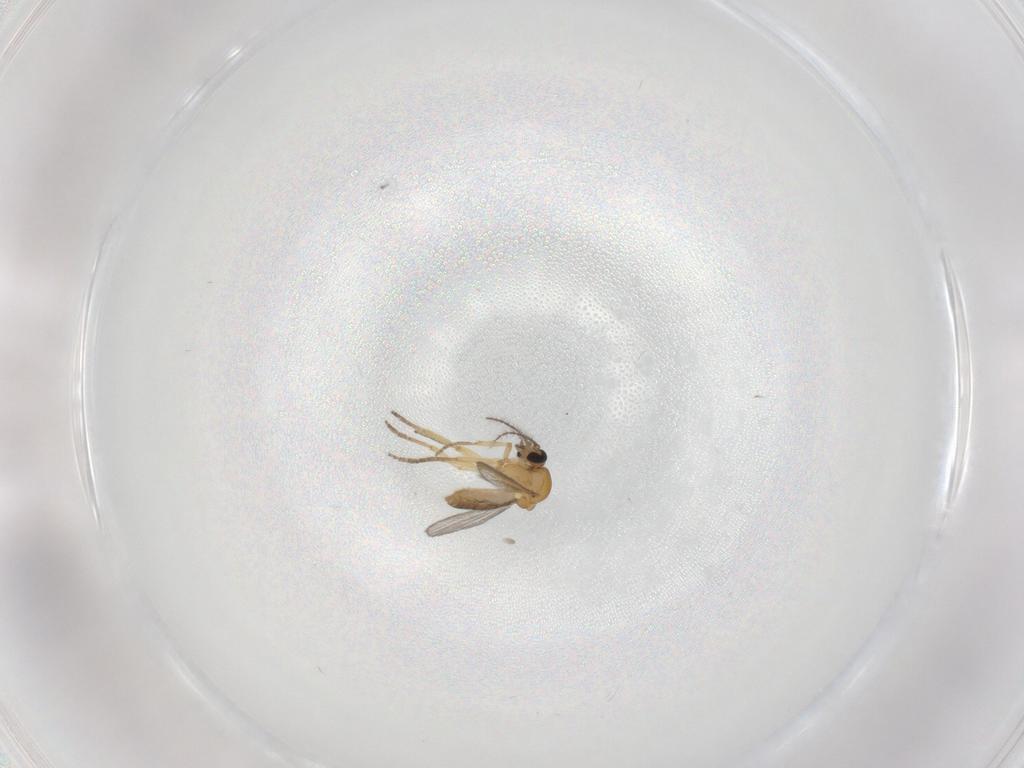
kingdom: Animalia
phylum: Arthropoda
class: Insecta
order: Diptera
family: Ceratopogonidae
